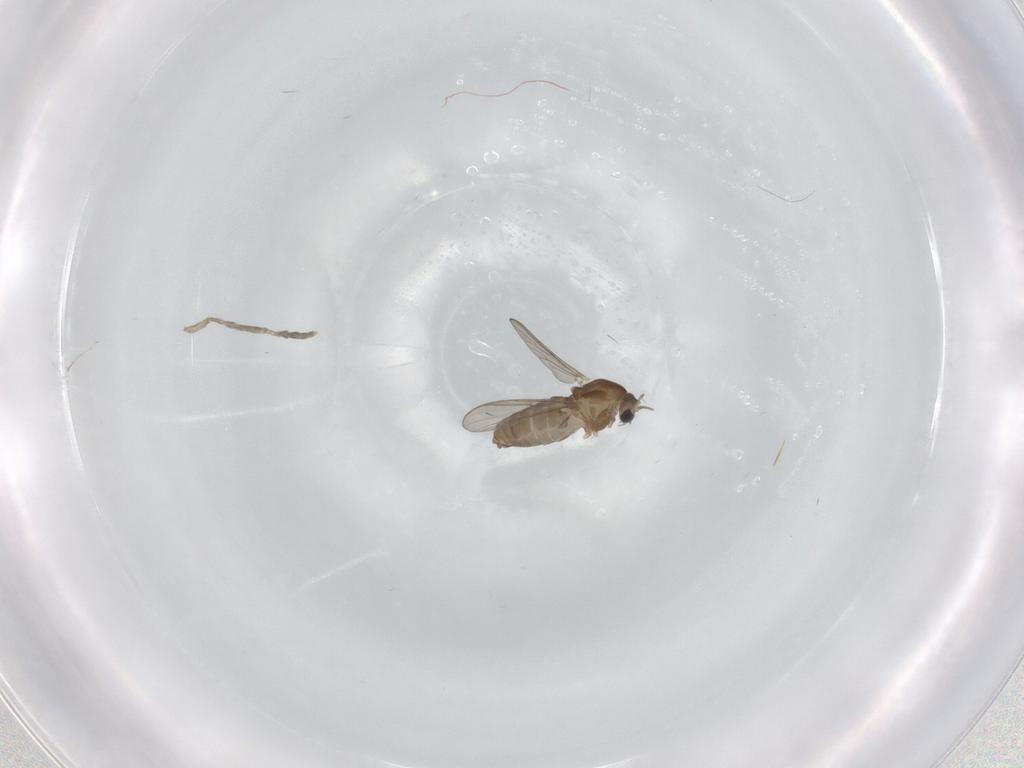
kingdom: Animalia
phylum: Arthropoda
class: Insecta
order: Diptera
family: Chironomidae
